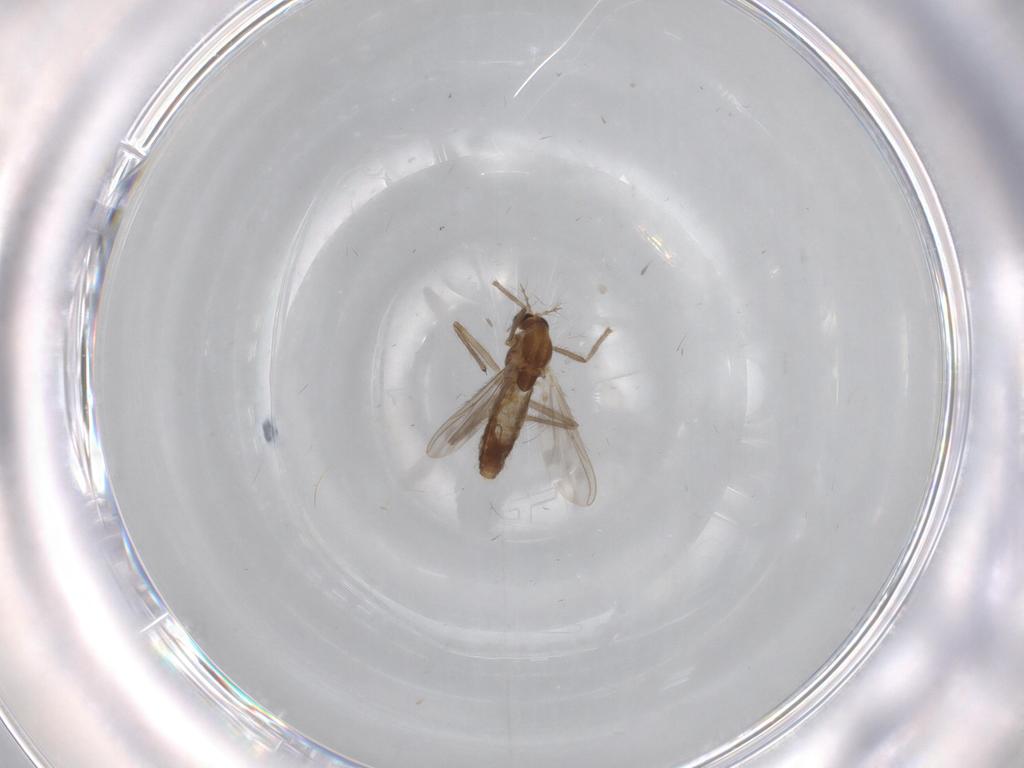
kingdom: Animalia
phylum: Arthropoda
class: Insecta
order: Diptera
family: Chironomidae
